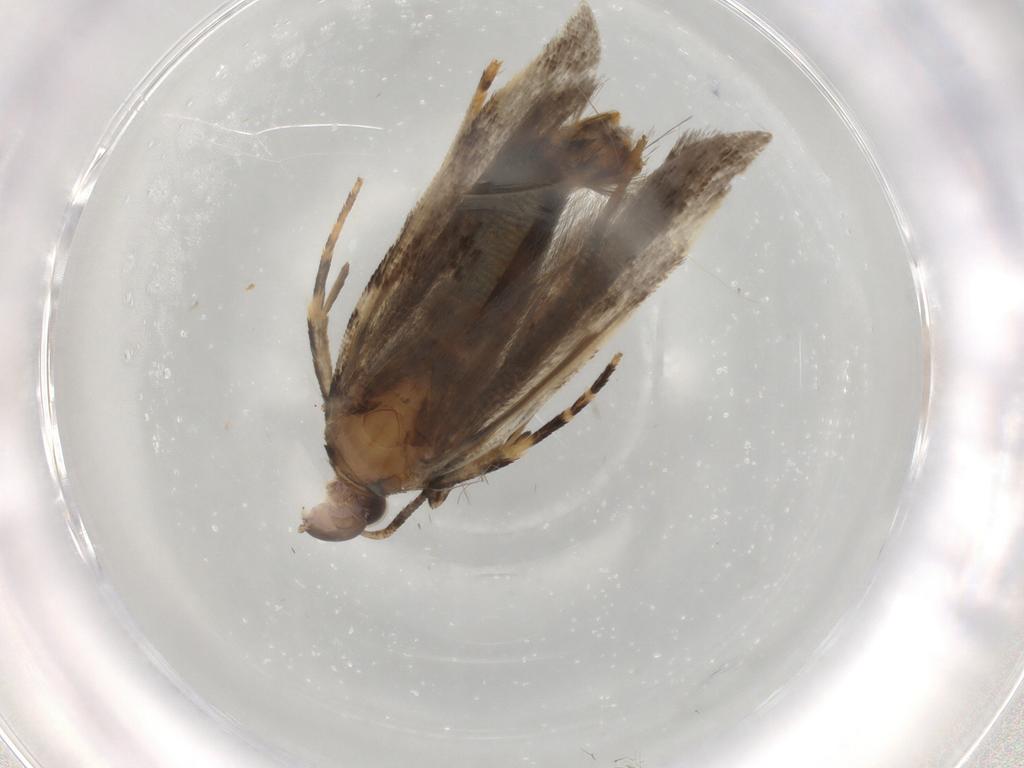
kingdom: Animalia
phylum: Arthropoda
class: Insecta
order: Lepidoptera
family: Gelechiidae
